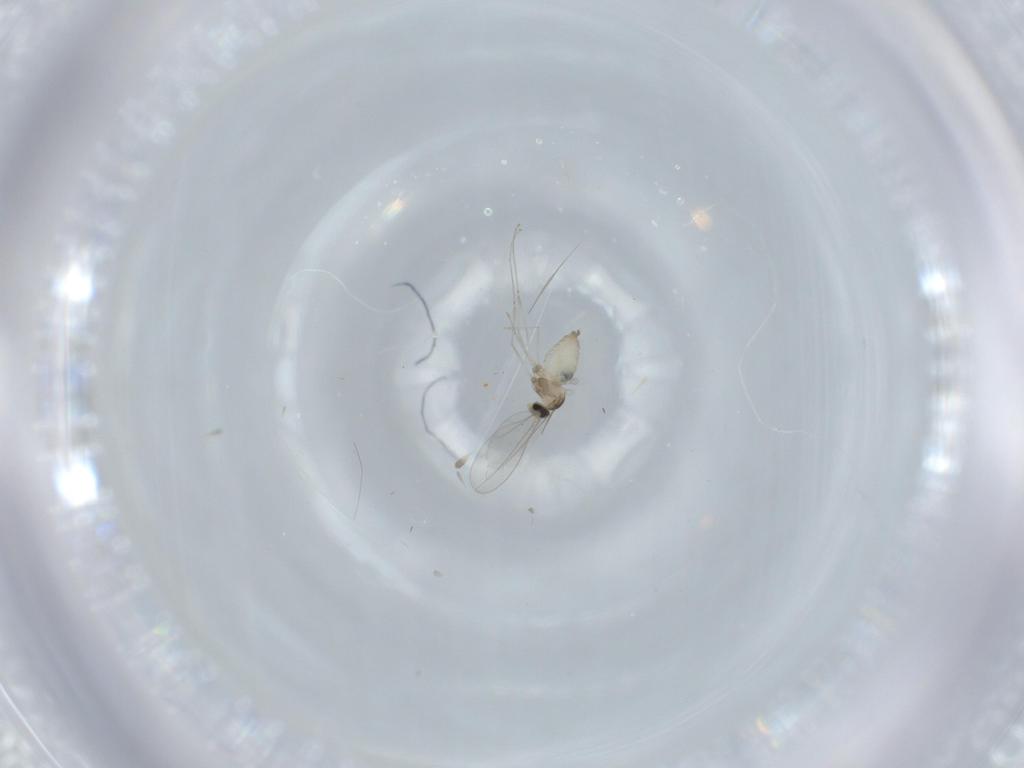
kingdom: Animalia
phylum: Arthropoda
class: Insecta
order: Diptera
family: Cecidomyiidae
